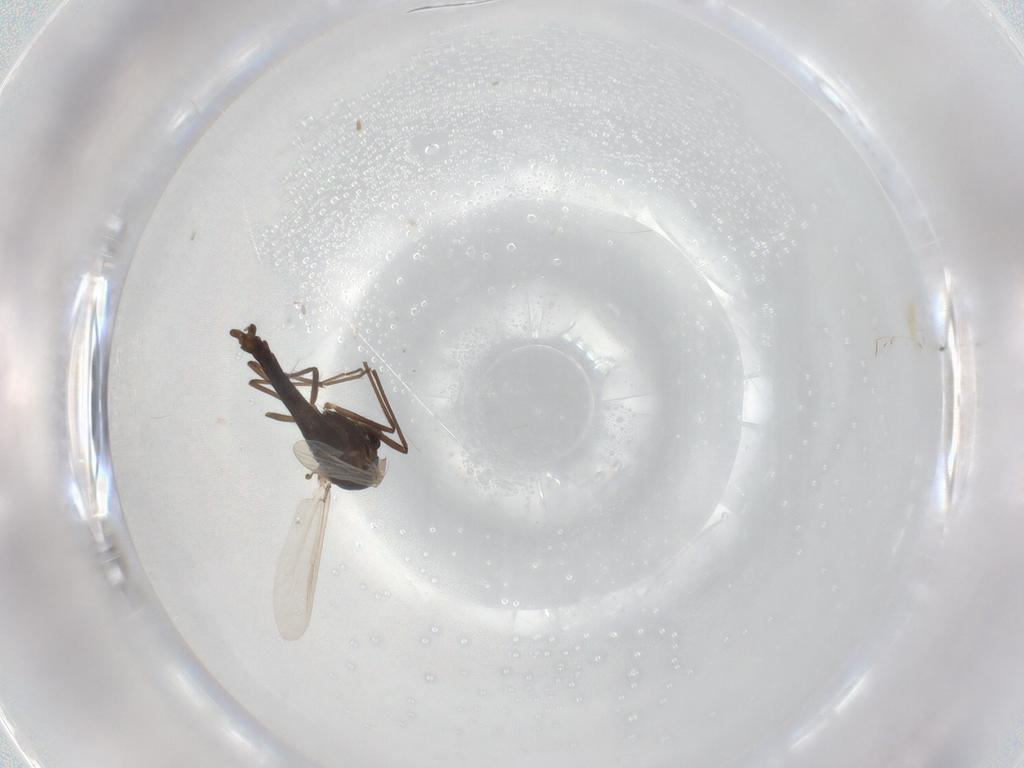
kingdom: Animalia
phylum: Arthropoda
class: Insecta
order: Diptera
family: Chironomidae
